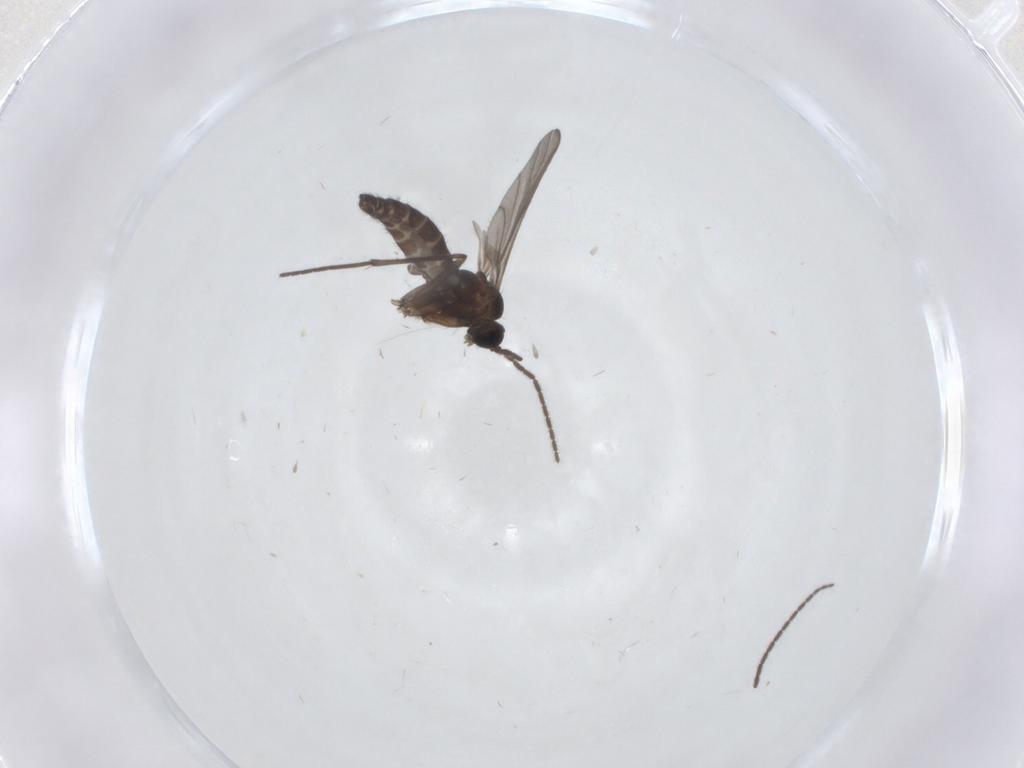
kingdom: Animalia
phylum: Arthropoda
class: Insecta
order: Diptera
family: Sciaridae
